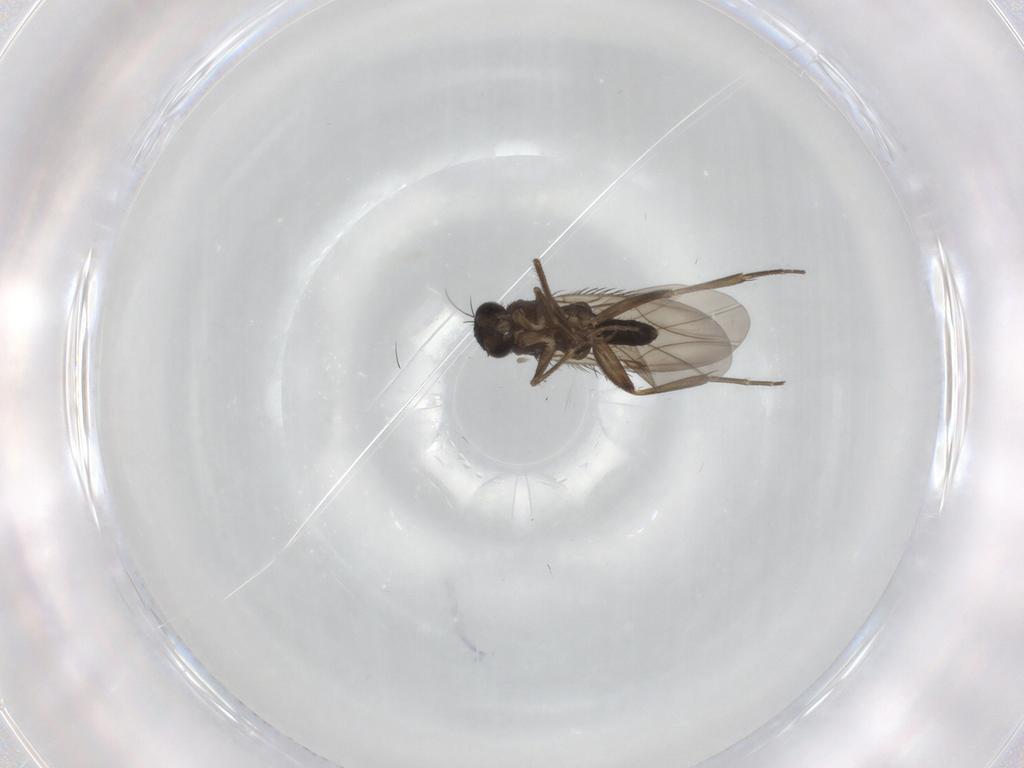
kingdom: Animalia
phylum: Arthropoda
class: Insecta
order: Diptera
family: Phoridae
